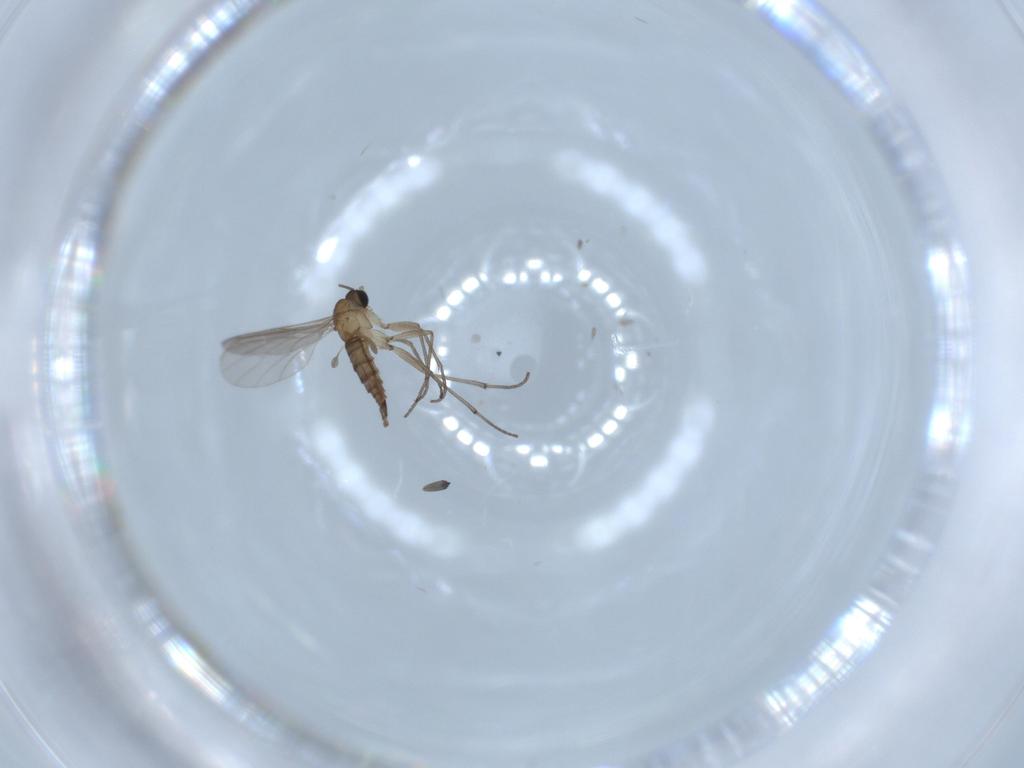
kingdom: Animalia
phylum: Arthropoda
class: Insecta
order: Diptera
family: Sciaridae
